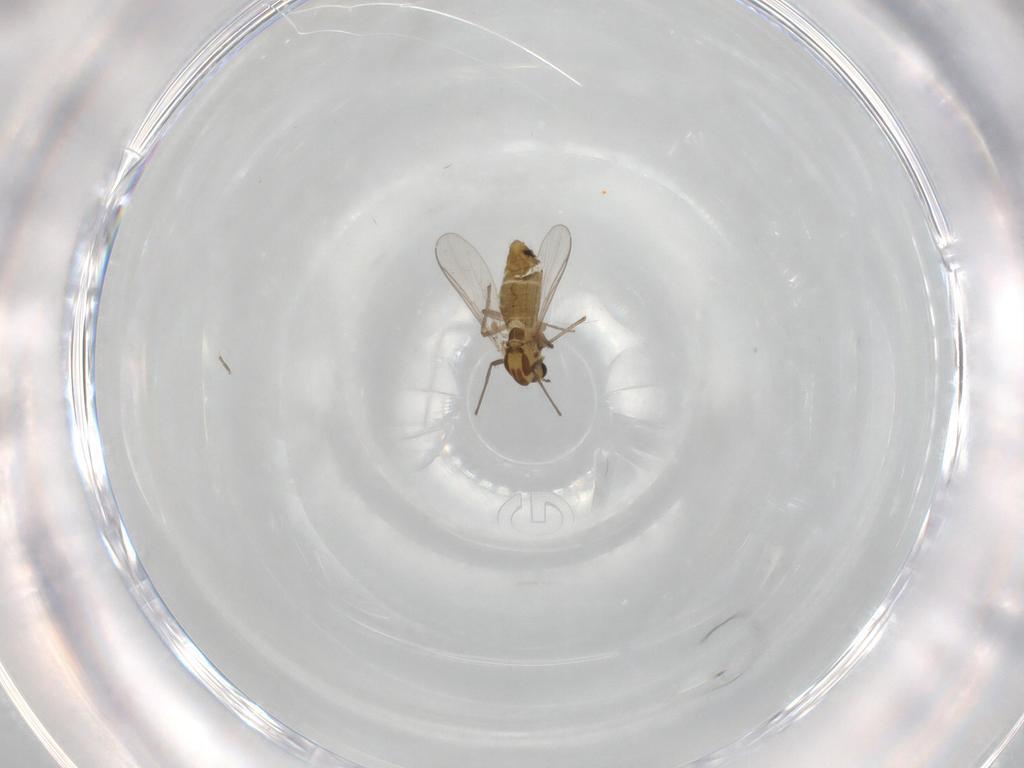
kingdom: Animalia
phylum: Arthropoda
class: Insecta
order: Diptera
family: Chironomidae
